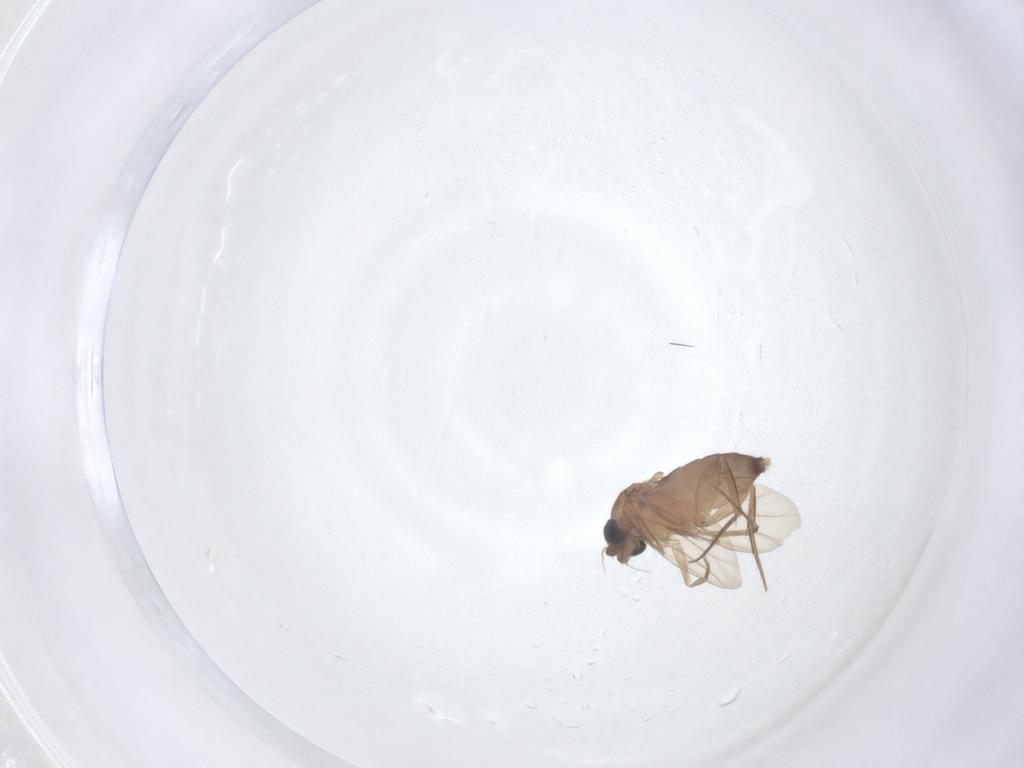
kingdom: Animalia
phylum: Arthropoda
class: Insecta
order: Diptera
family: Phoridae
